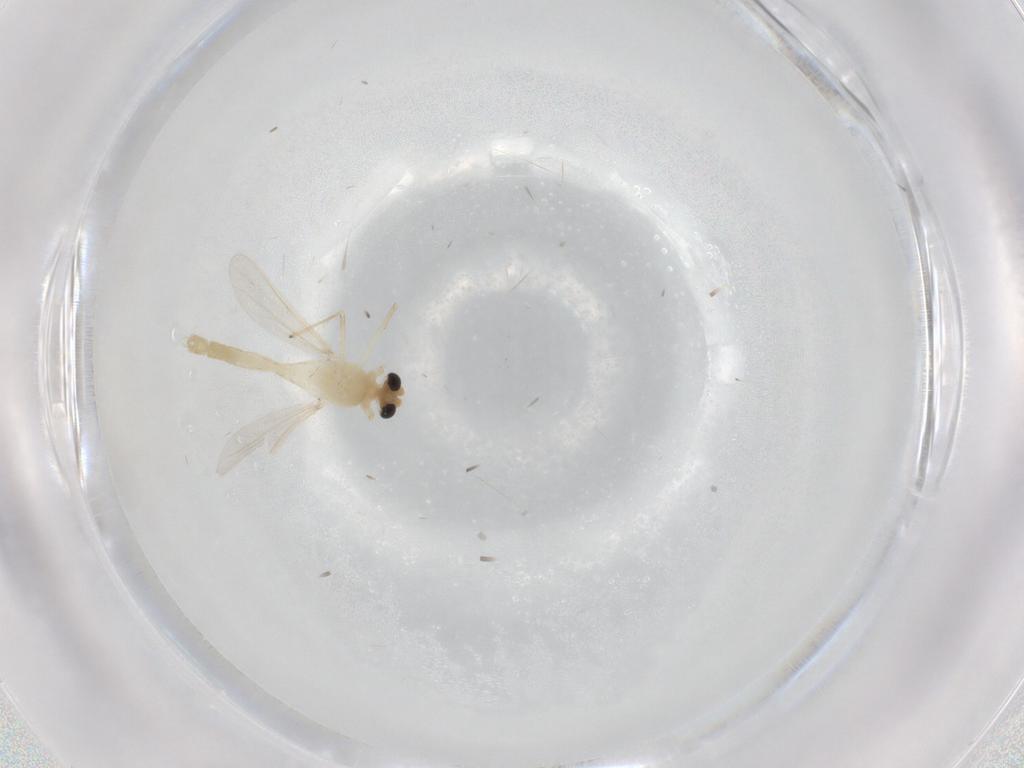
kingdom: Animalia
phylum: Arthropoda
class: Insecta
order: Diptera
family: Chironomidae
